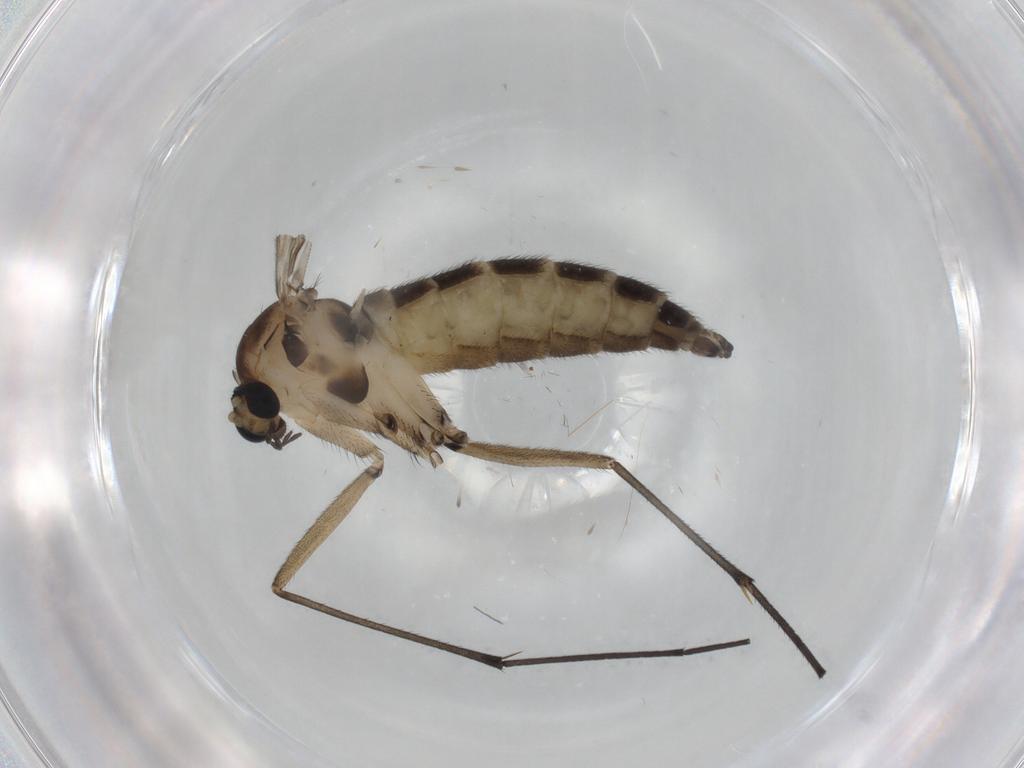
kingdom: Animalia
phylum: Arthropoda
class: Insecta
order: Diptera
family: Sciaridae
